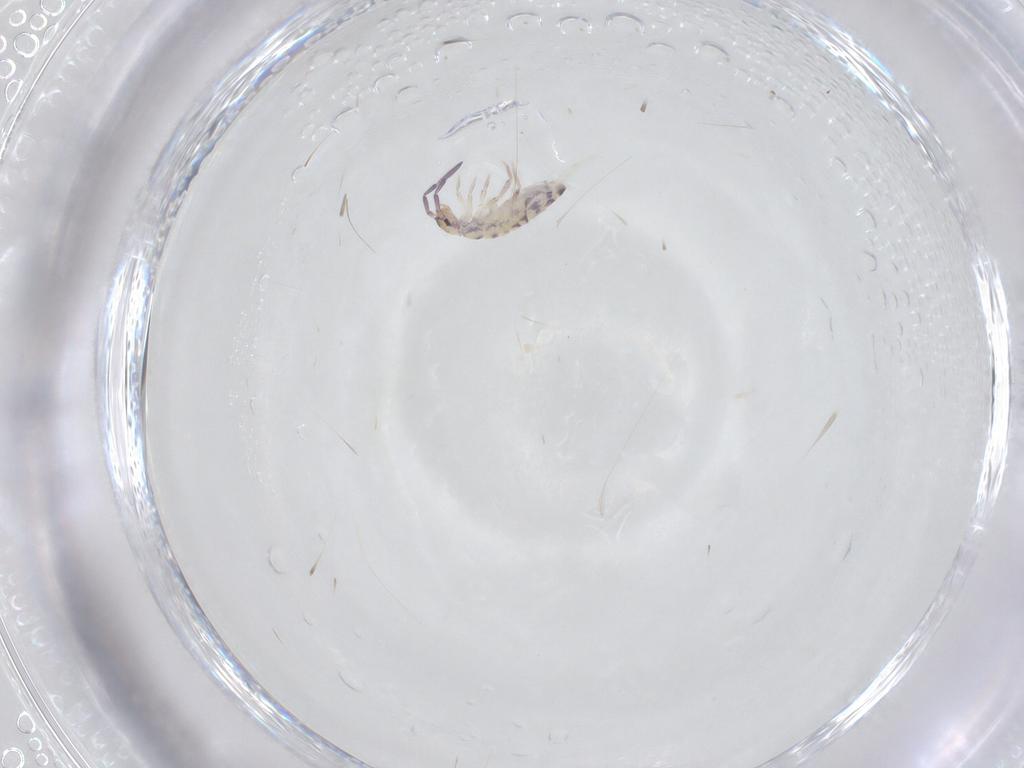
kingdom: Animalia
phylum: Arthropoda
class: Collembola
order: Entomobryomorpha
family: Entomobryidae
